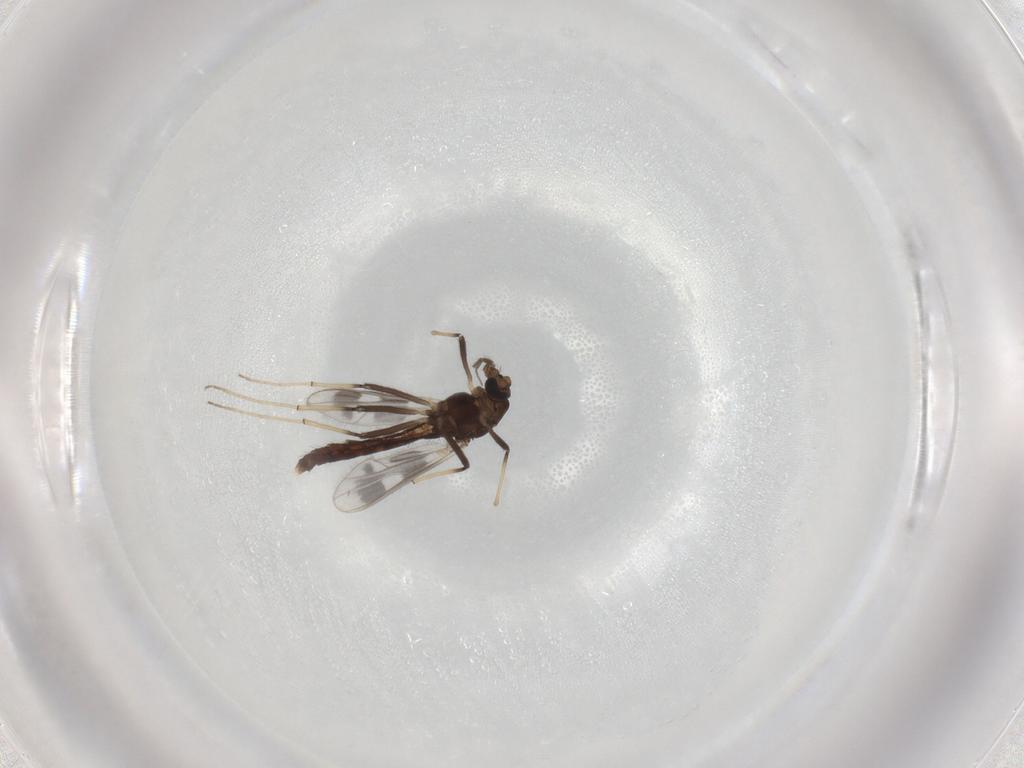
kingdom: Animalia
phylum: Arthropoda
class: Insecta
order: Diptera
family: Chironomidae
